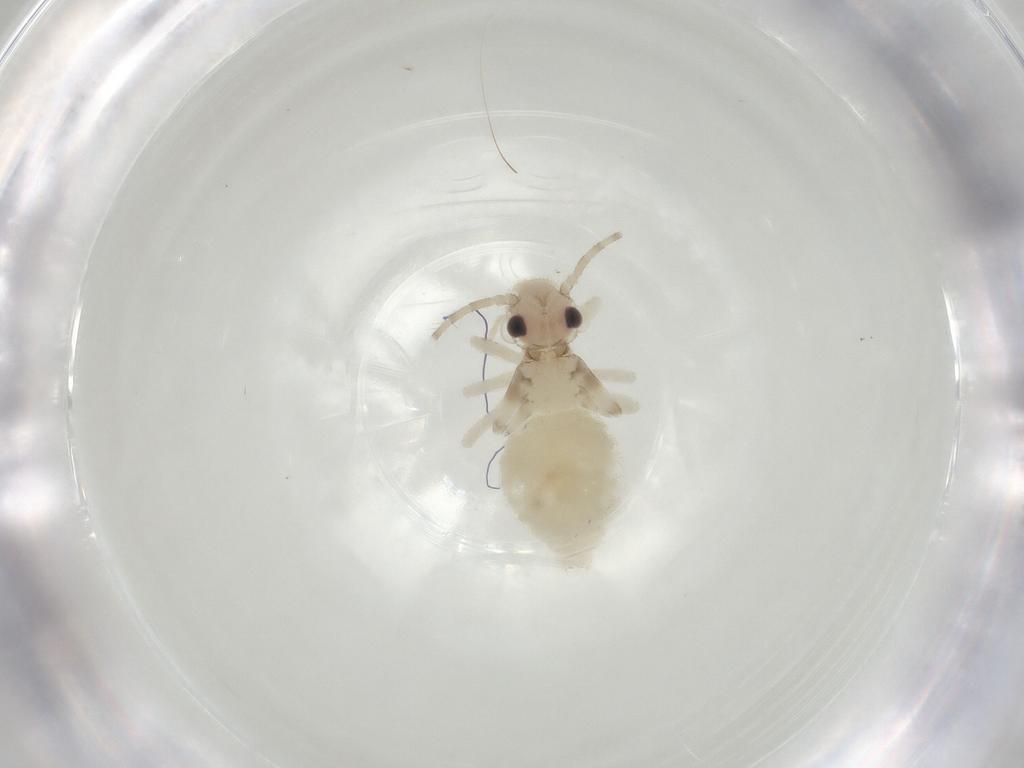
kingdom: Animalia
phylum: Arthropoda
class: Insecta
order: Psocodea
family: Amphipsocidae
